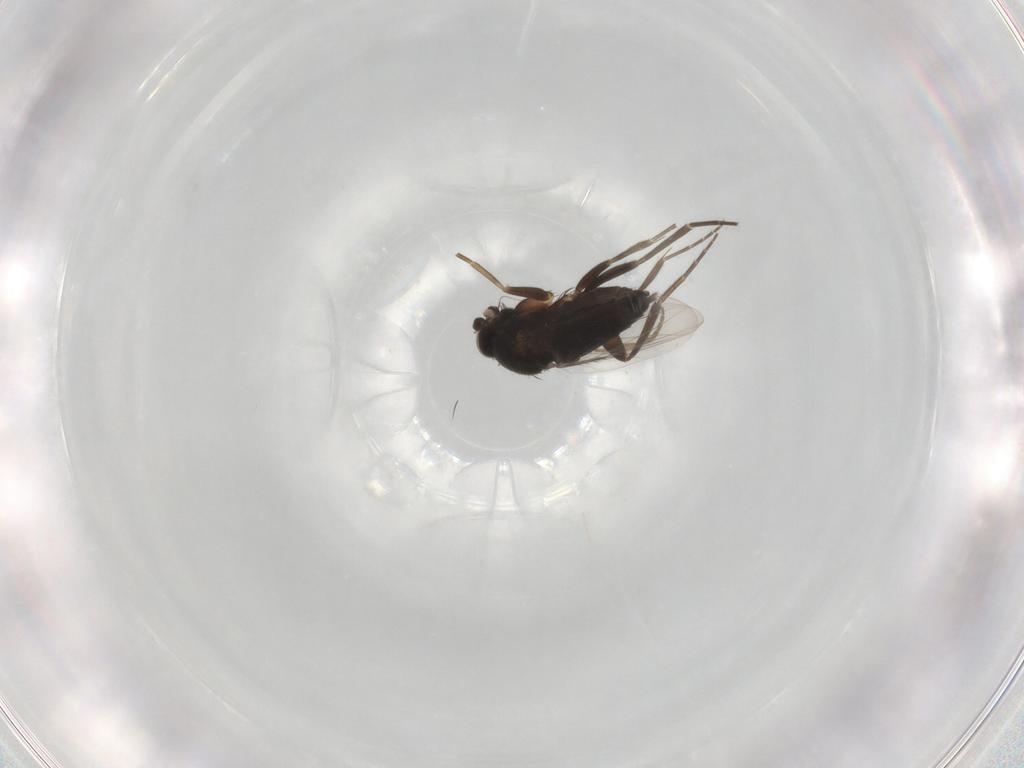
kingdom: Animalia
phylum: Arthropoda
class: Insecta
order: Diptera
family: Phoridae
